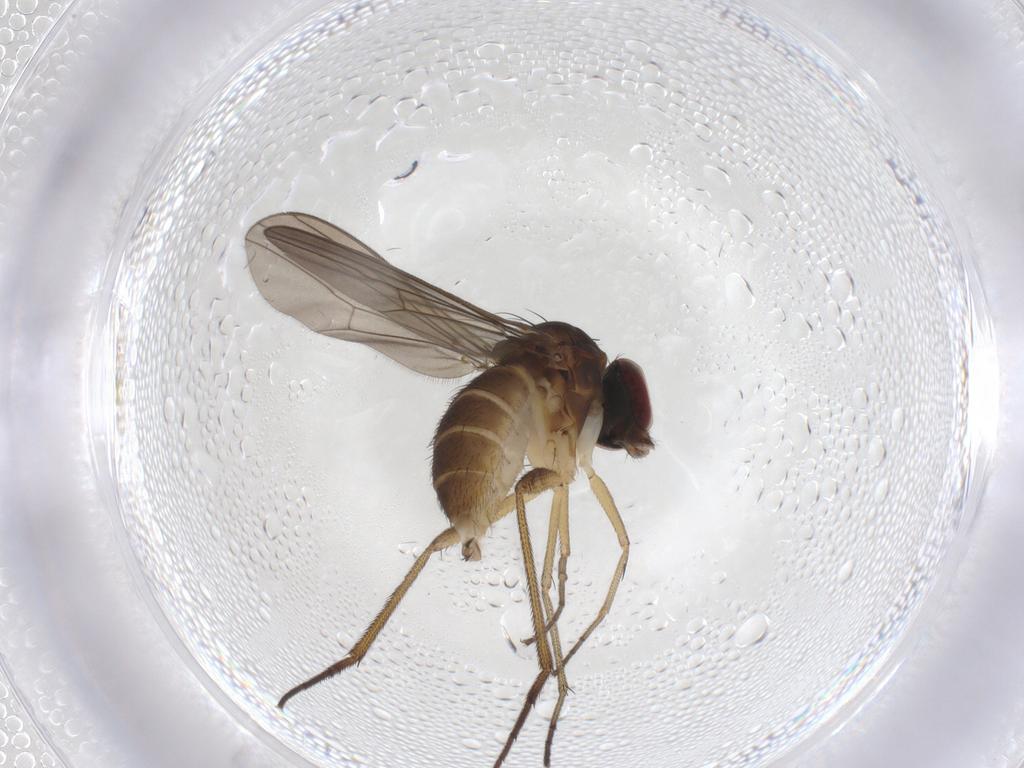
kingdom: Animalia
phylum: Arthropoda
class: Insecta
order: Diptera
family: Dolichopodidae
